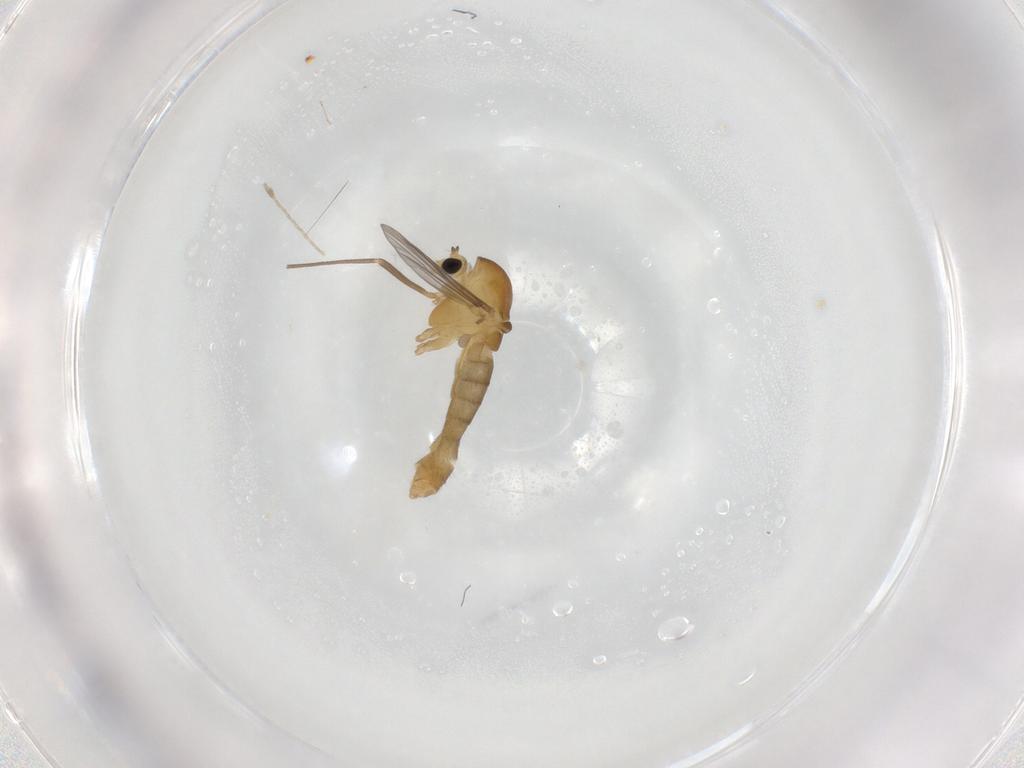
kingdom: Animalia
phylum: Arthropoda
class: Insecta
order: Diptera
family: Chironomidae
